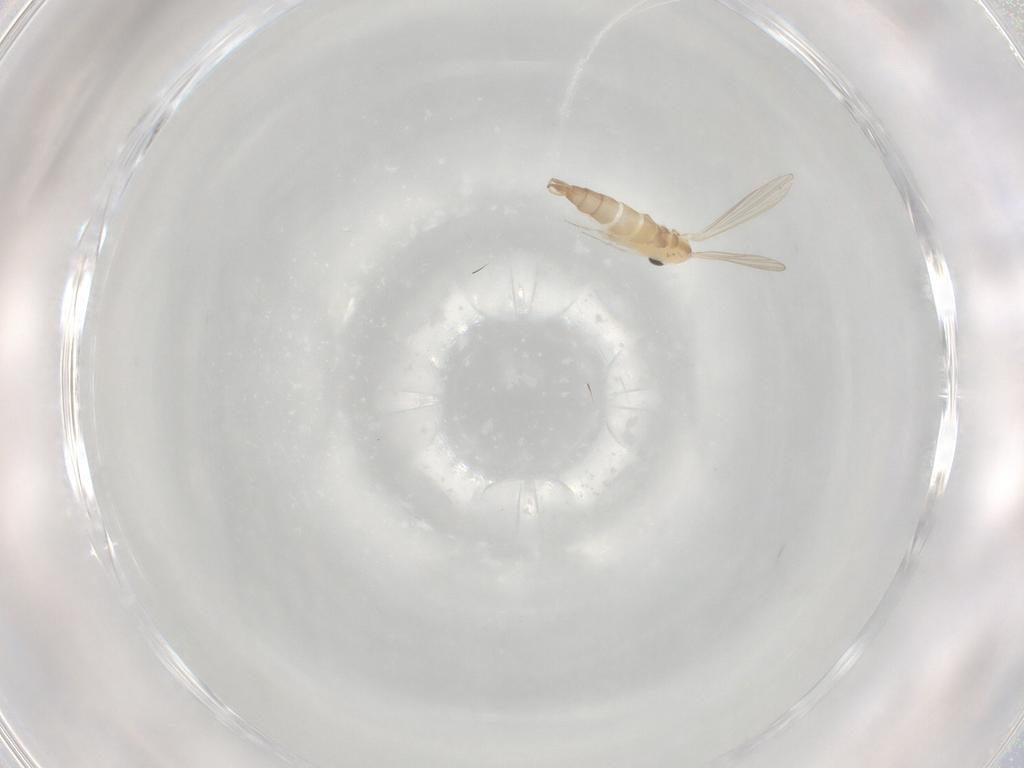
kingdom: Animalia
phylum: Arthropoda
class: Insecta
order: Diptera
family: Psychodidae
